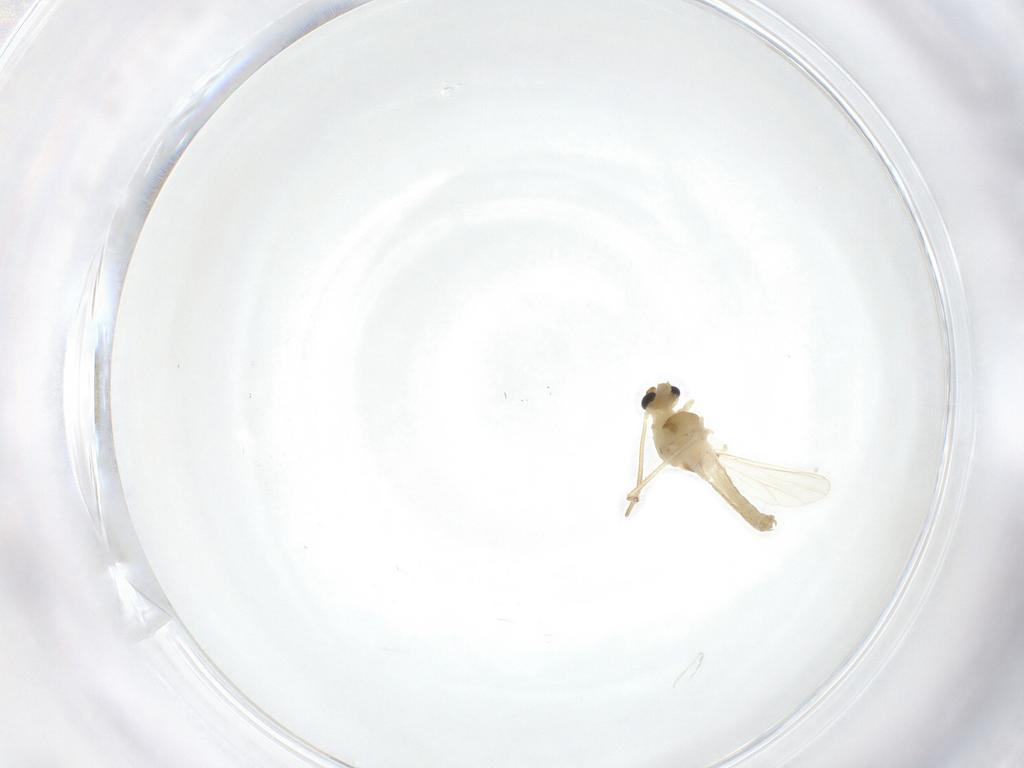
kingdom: Animalia
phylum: Arthropoda
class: Insecta
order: Diptera
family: Chironomidae
